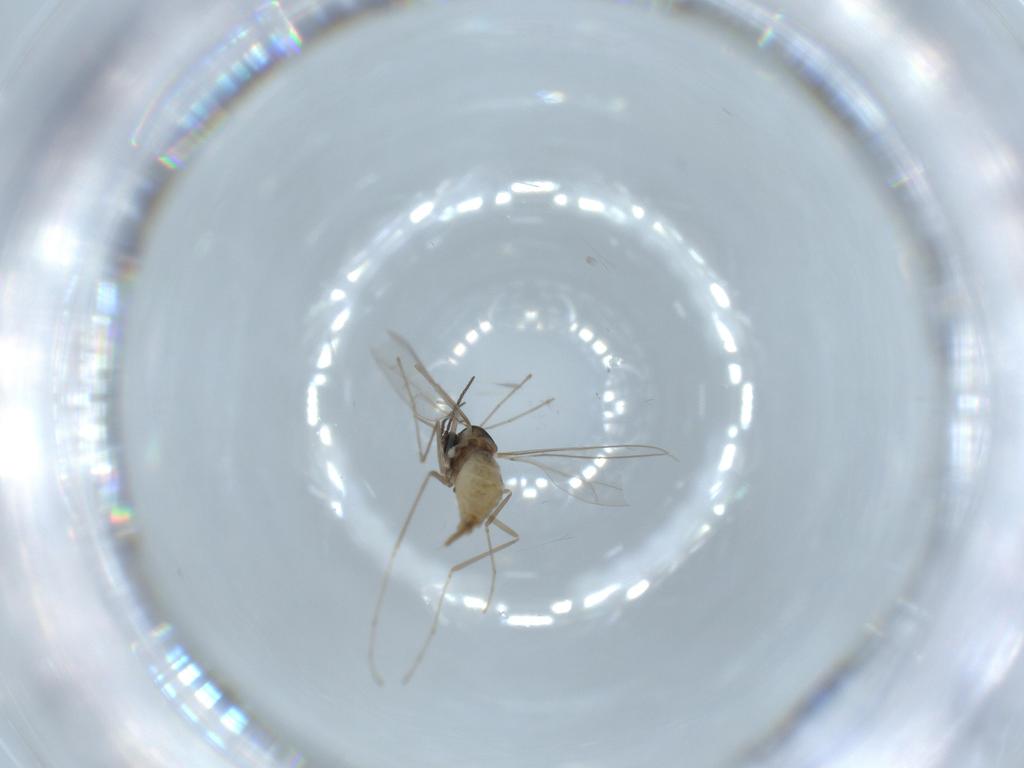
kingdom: Animalia
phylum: Arthropoda
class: Insecta
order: Diptera
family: Cecidomyiidae
